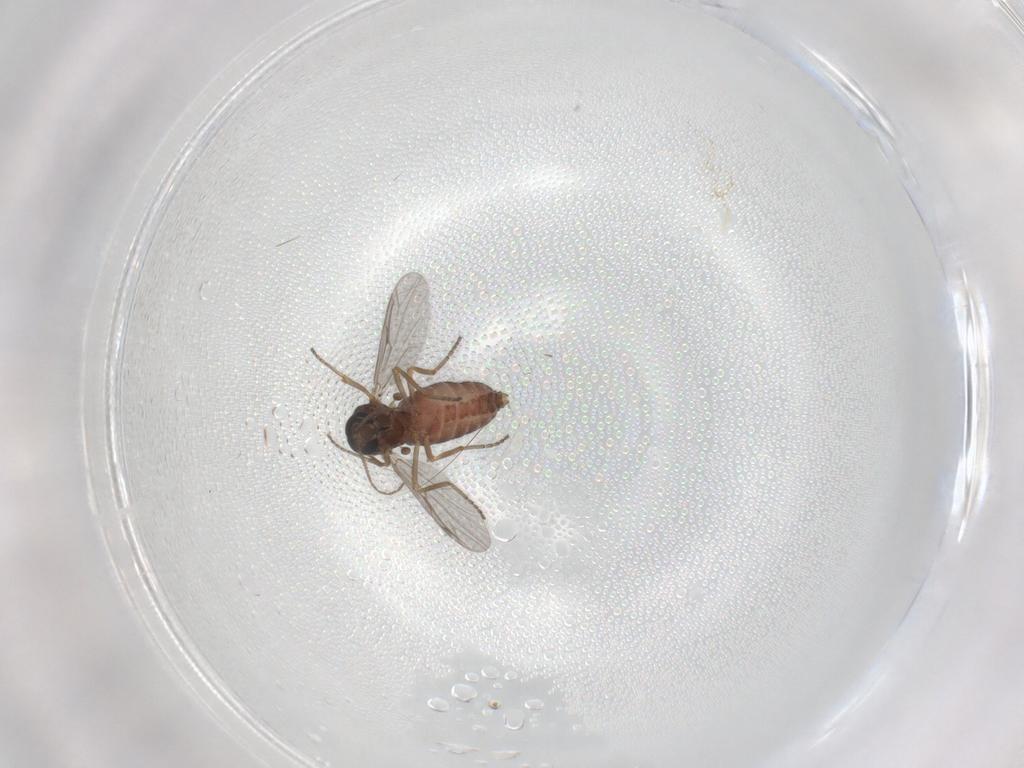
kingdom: Animalia
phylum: Arthropoda
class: Insecta
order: Diptera
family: Ceratopogonidae
